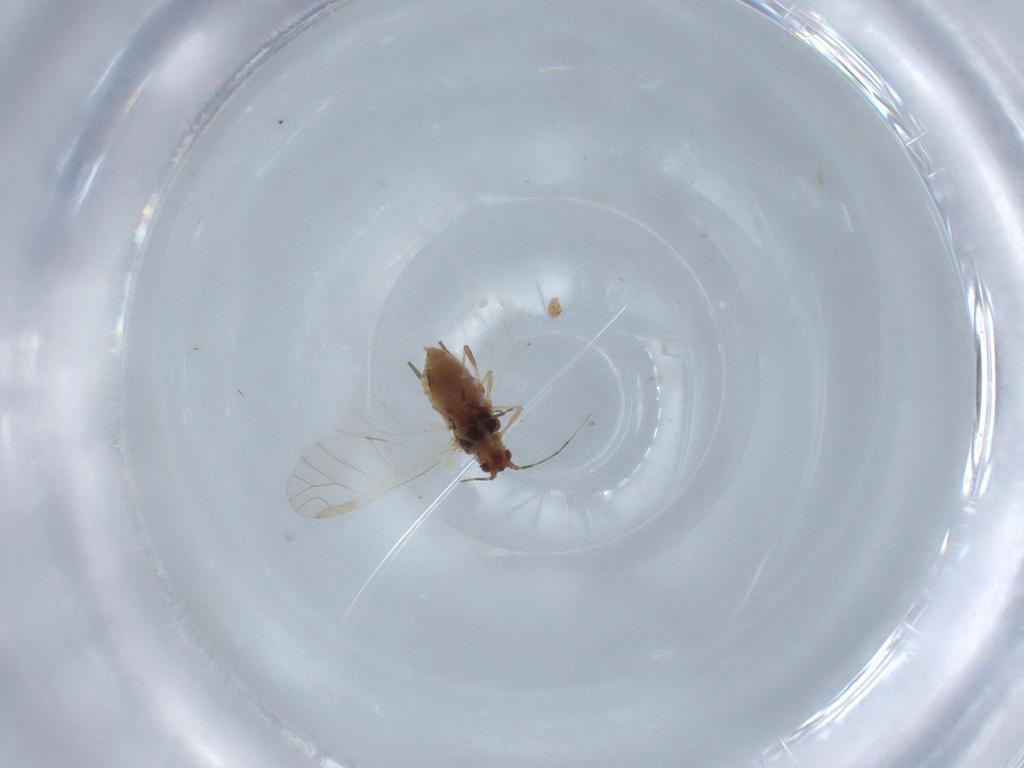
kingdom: Animalia
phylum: Arthropoda
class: Insecta
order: Hemiptera
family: Aphididae
